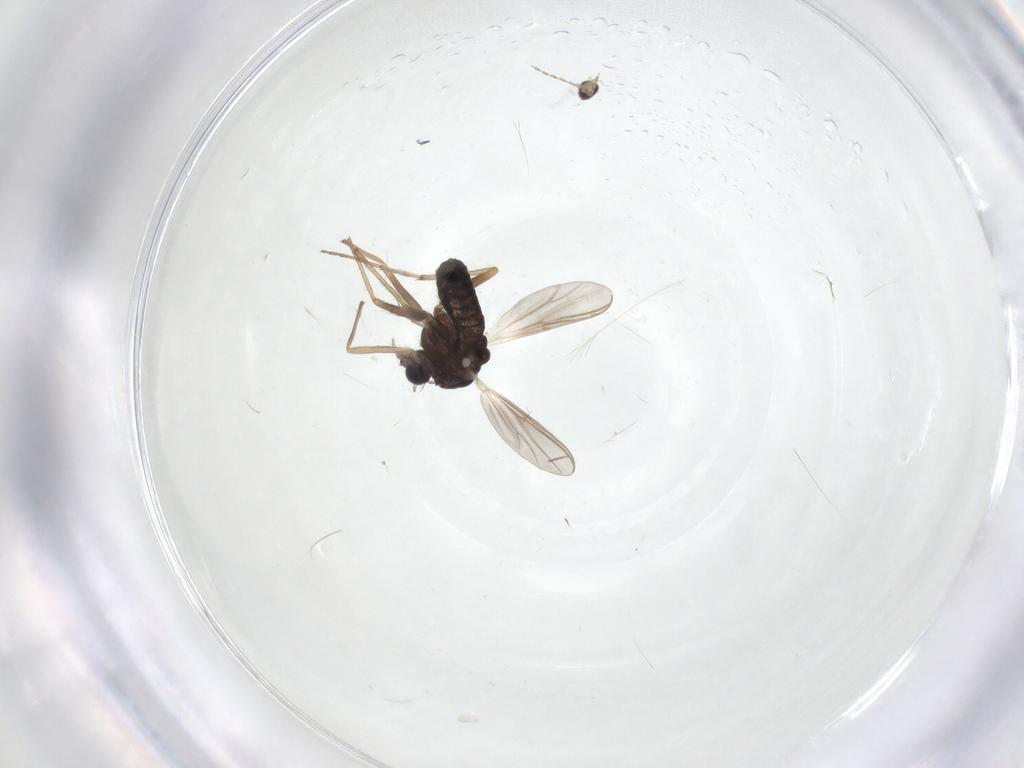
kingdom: Animalia
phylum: Arthropoda
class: Insecta
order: Diptera
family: Chironomidae
